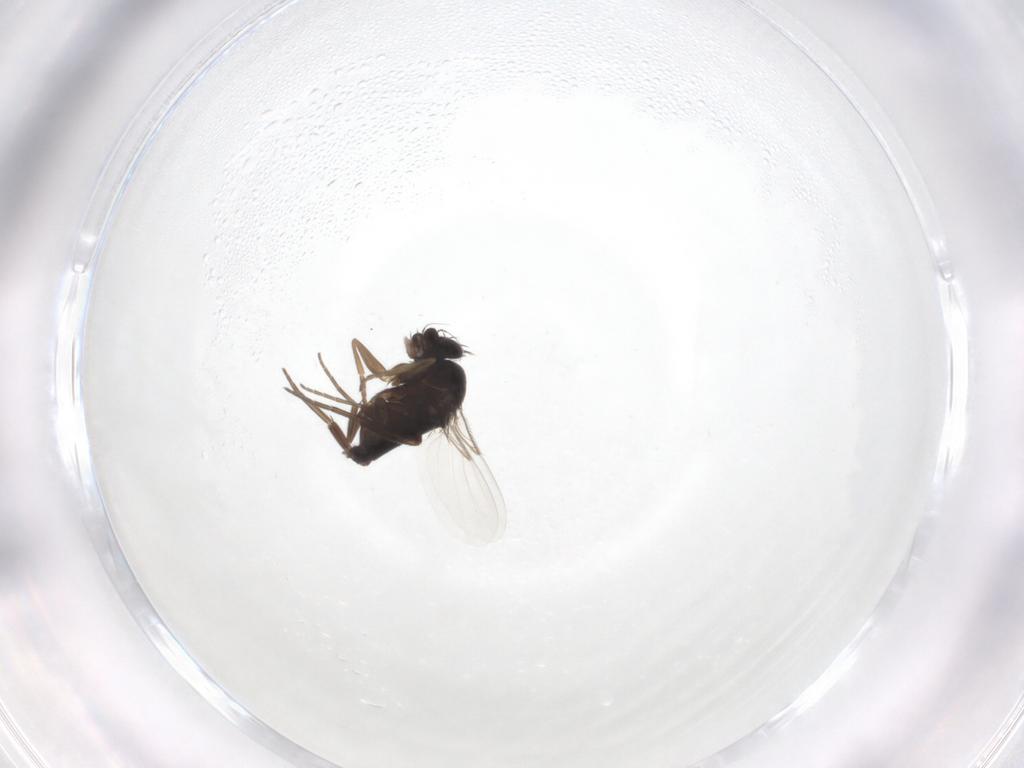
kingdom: Animalia
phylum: Arthropoda
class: Insecta
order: Diptera
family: Phoridae
